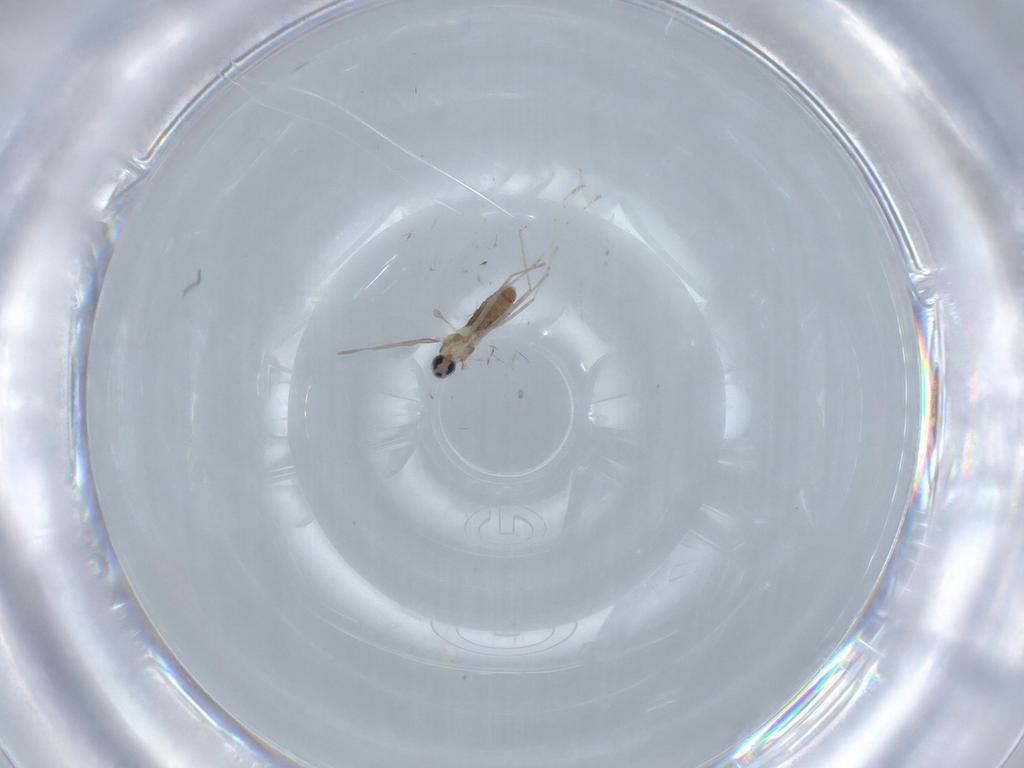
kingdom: Animalia
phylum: Arthropoda
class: Insecta
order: Diptera
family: Cecidomyiidae
